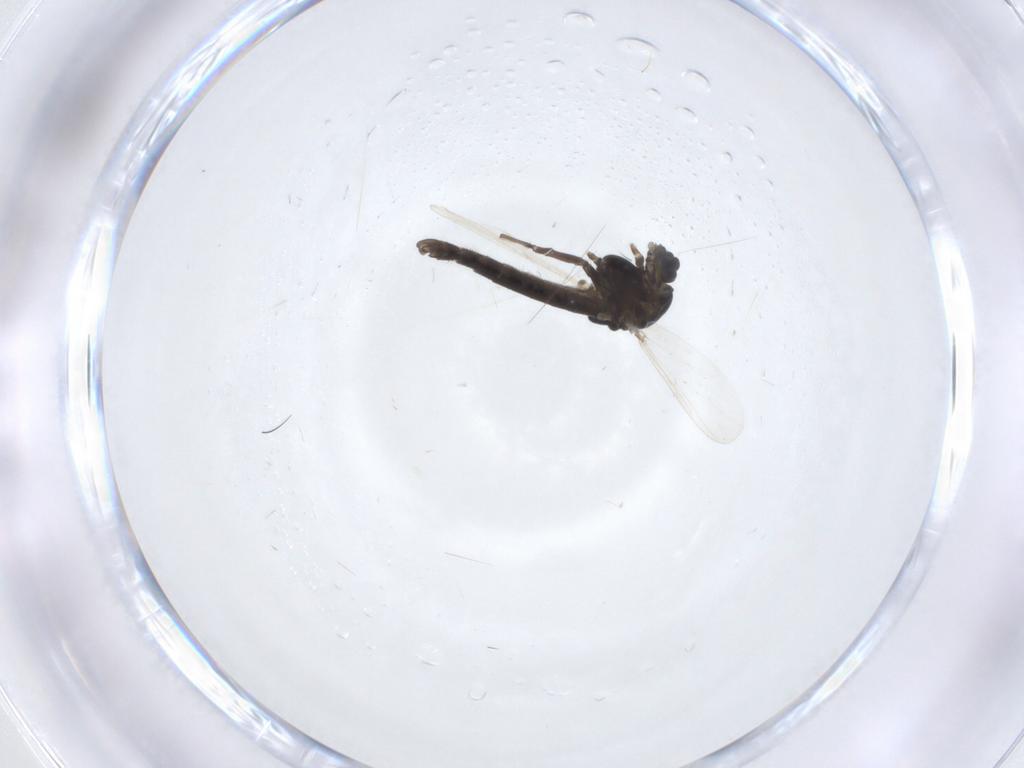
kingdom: Animalia
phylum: Arthropoda
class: Insecta
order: Diptera
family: Chironomidae
